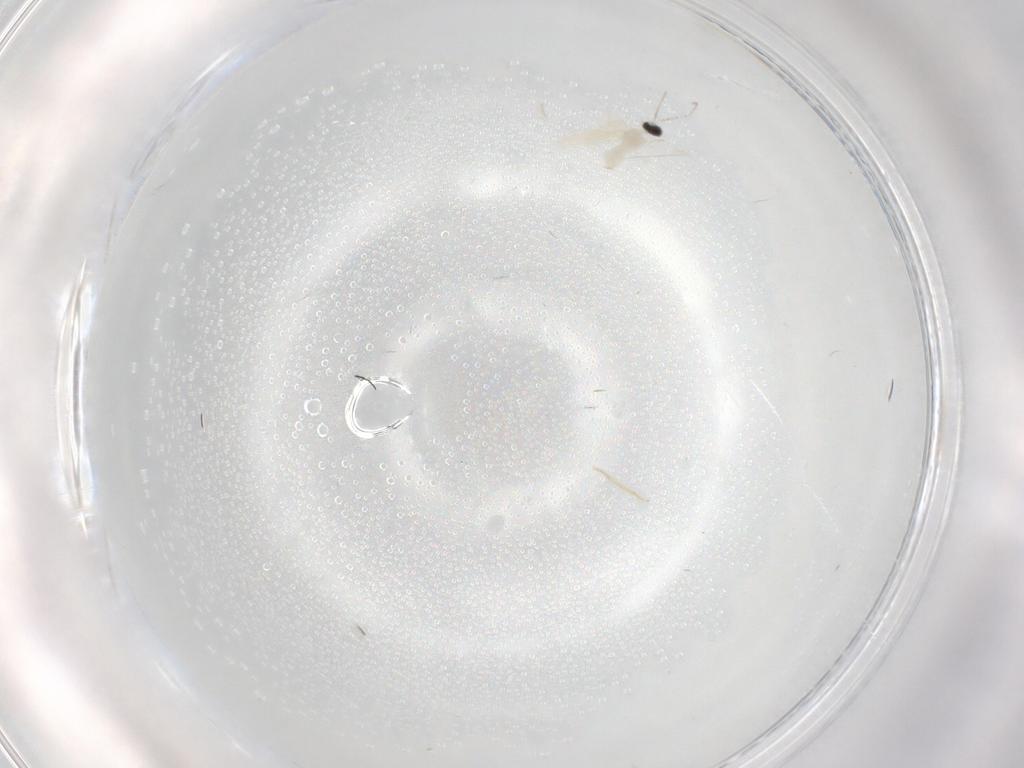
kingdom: Animalia
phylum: Arthropoda
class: Insecta
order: Diptera
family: Cecidomyiidae
